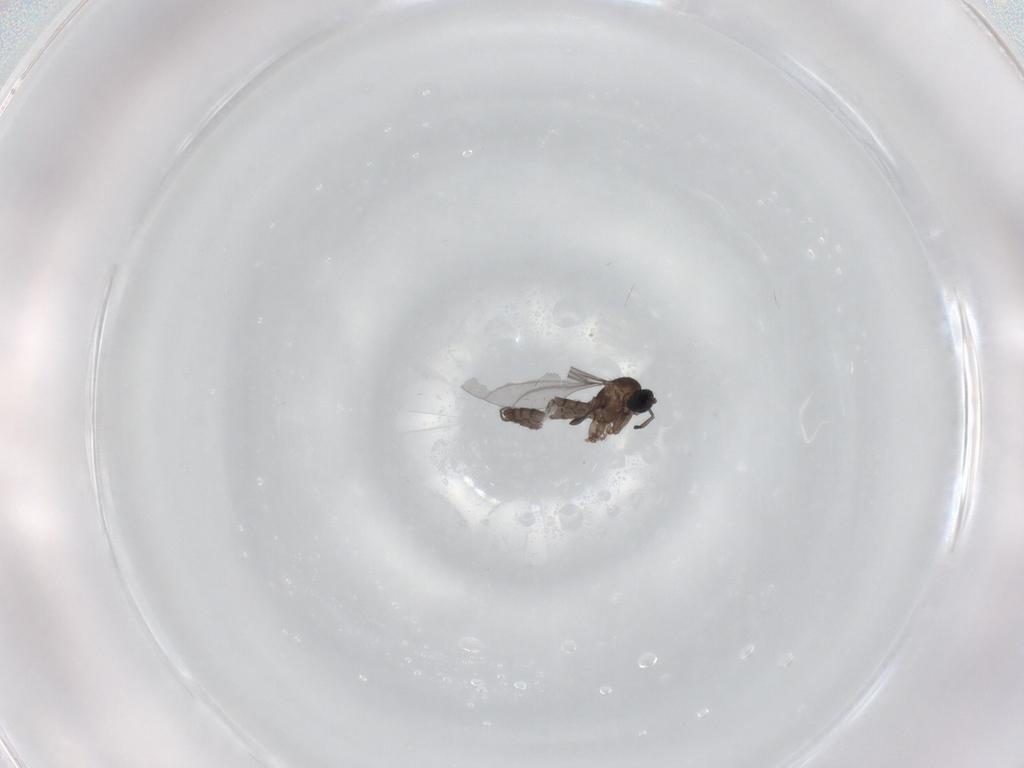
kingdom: Animalia
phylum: Arthropoda
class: Insecta
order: Diptera
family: Sciaridae
